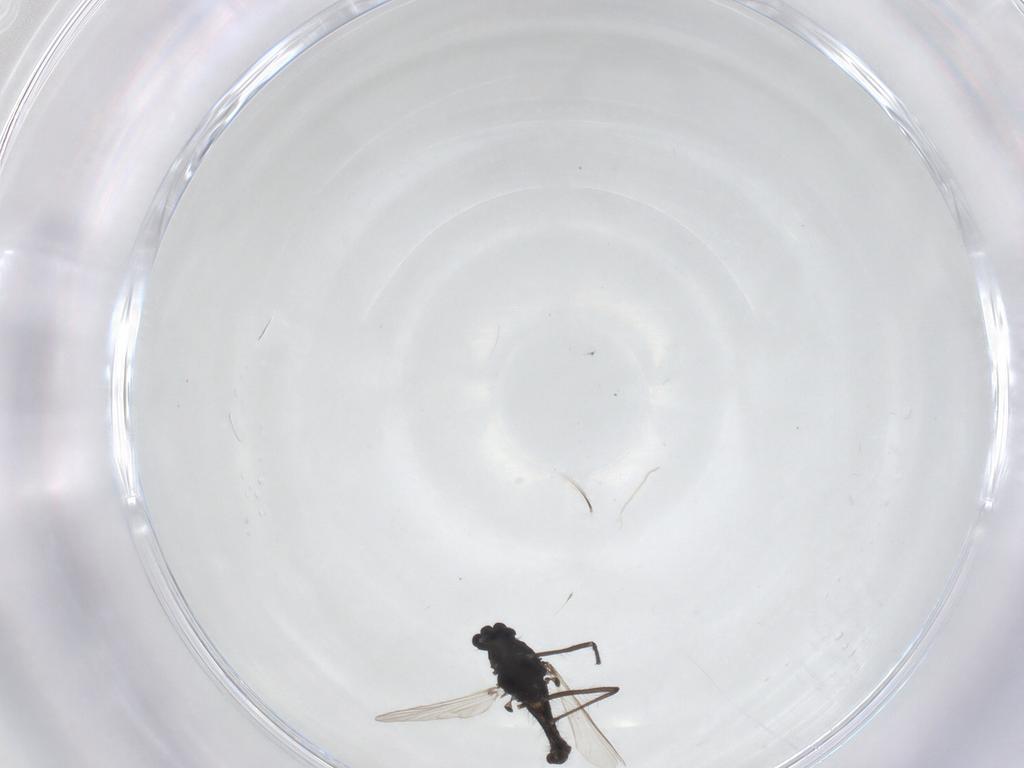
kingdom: Animalia
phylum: Arthropoda
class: Insecta
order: Diptera
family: Chironomidae
